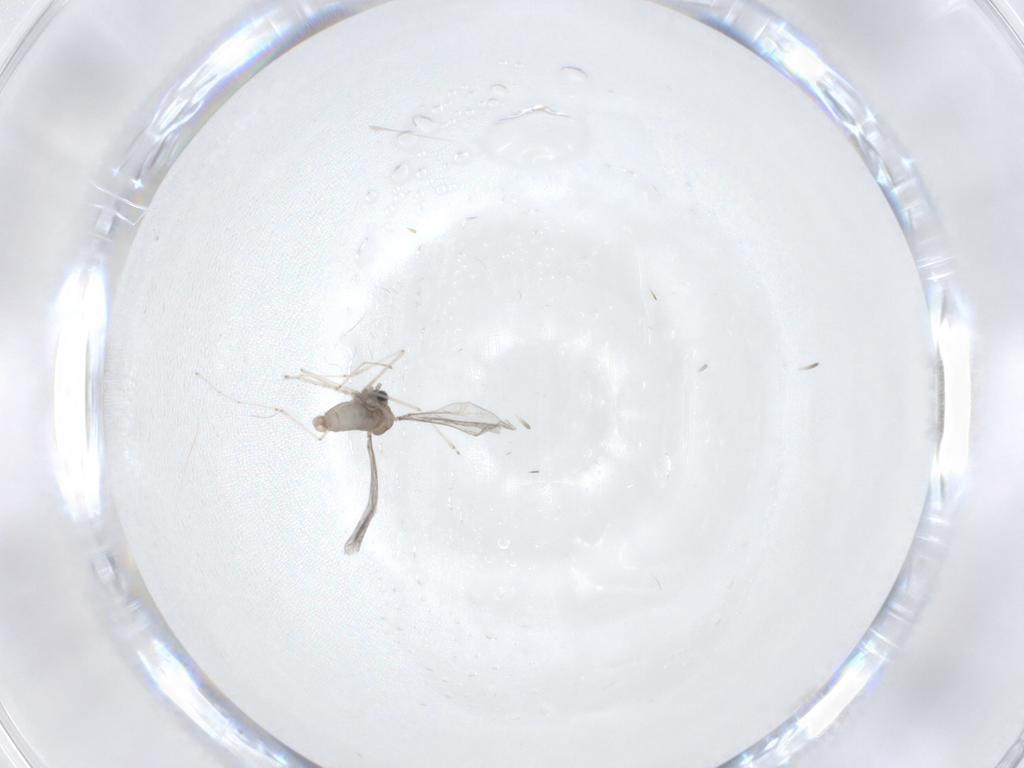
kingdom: Animalia
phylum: Arthropoda
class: Insecta
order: Diptera
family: Cecidomyiidae
